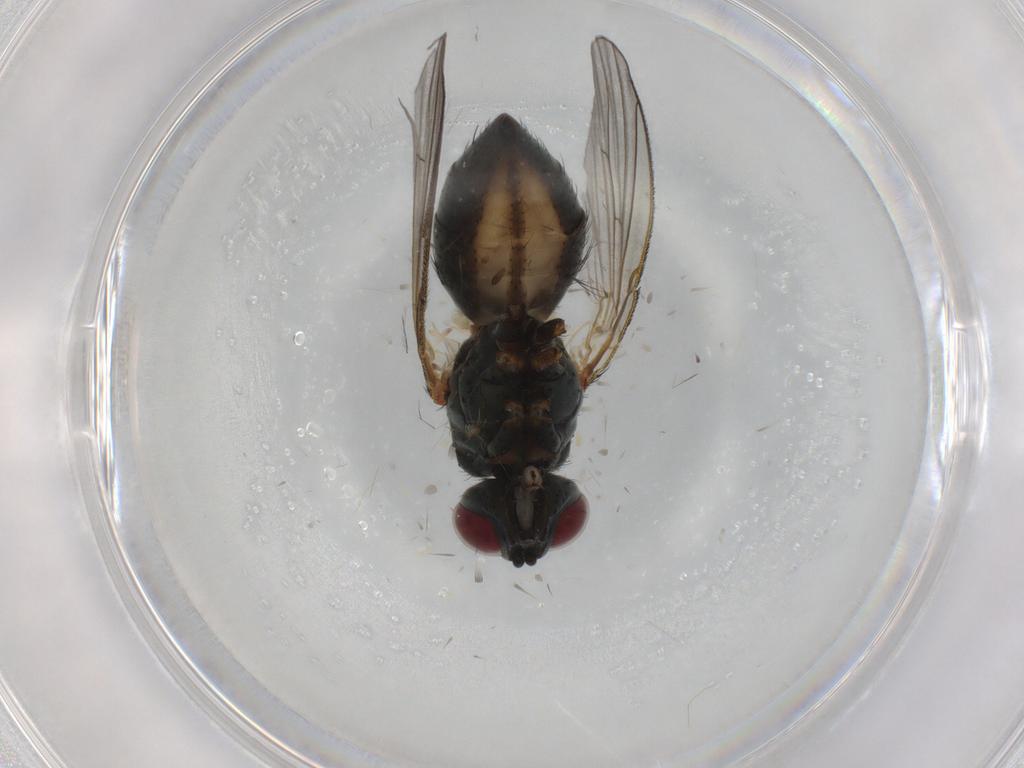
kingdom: Animalia
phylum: Arthropoda
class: Insecta
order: Diptera
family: Muscidae
